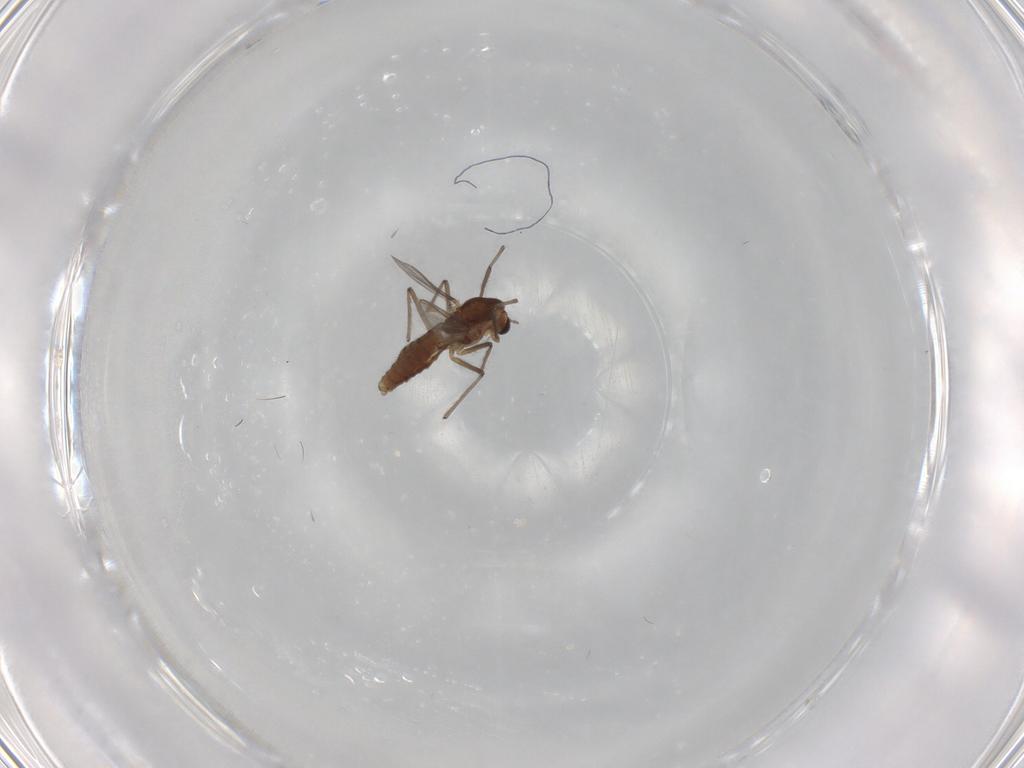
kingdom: Animalia
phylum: Arthropoda
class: Insecta
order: Diptera
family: Chironomidae
